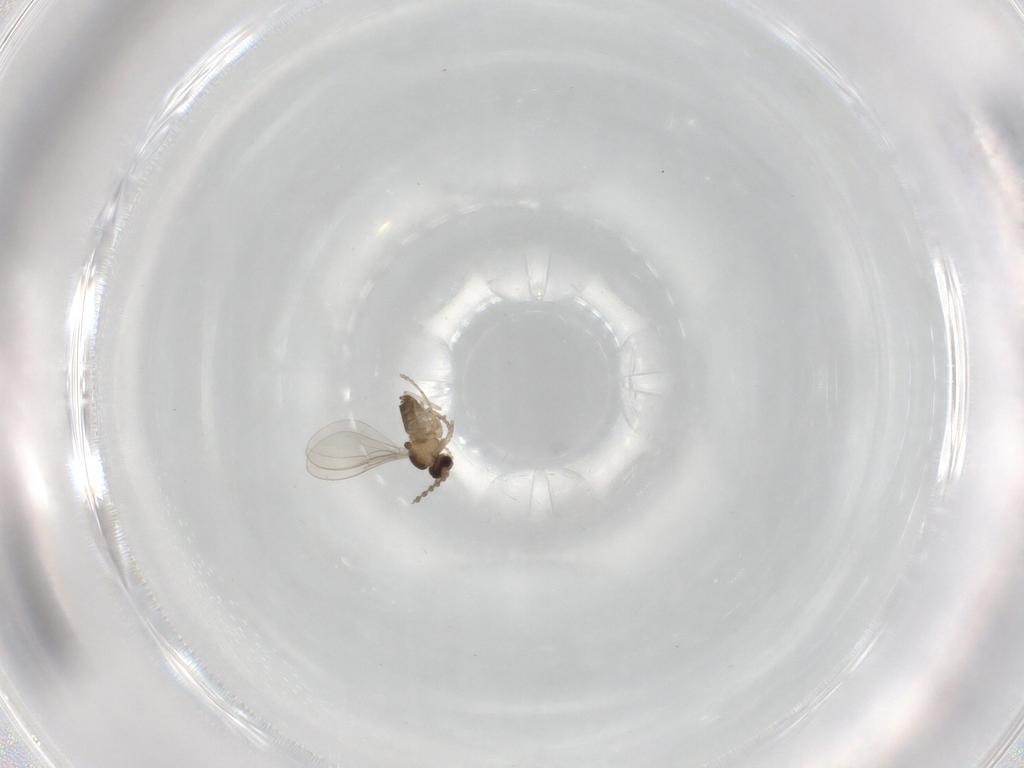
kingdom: Animalia
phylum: Arthropoda
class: Insecta
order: Diptera
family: Cecidomyiidae
